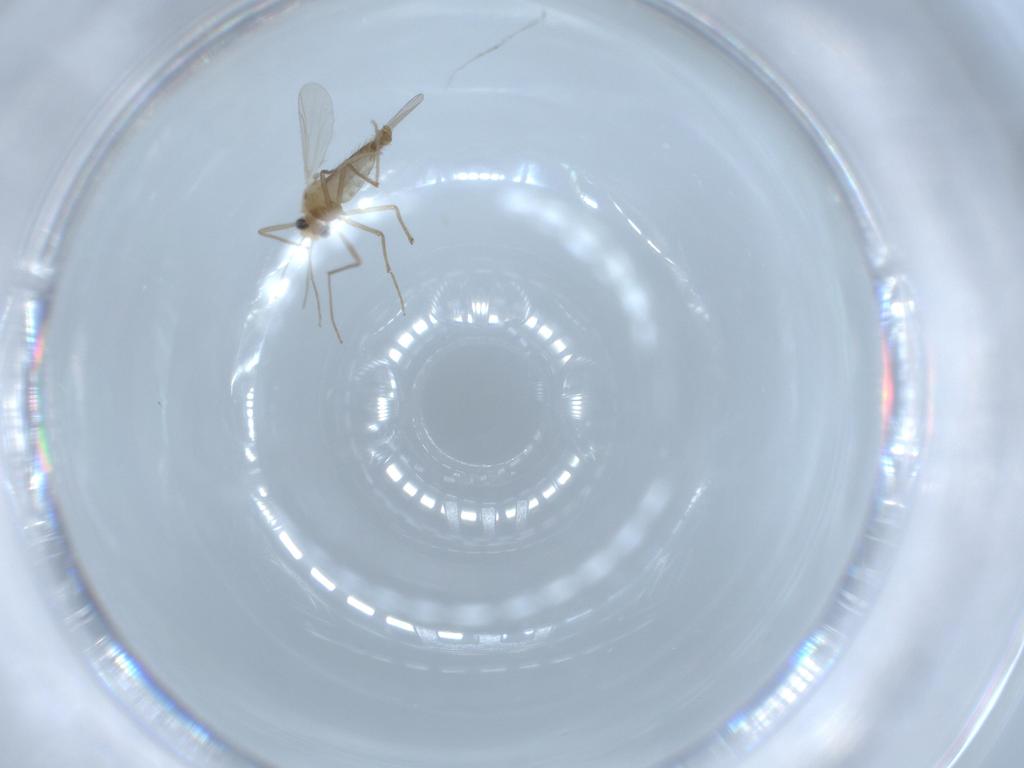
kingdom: Animalia
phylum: Arthropoda
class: Insecta
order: Diptera
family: Chironomidae
